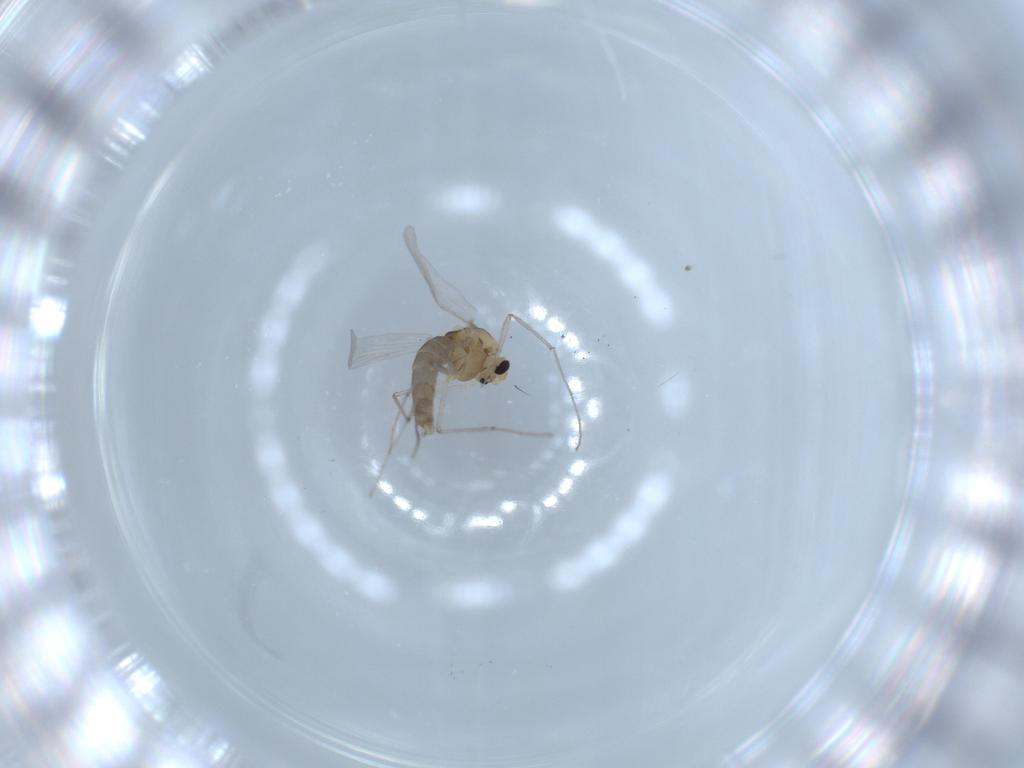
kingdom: Animalia
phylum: Arthropoda
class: Insecta
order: Diptera
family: Chironomidae
